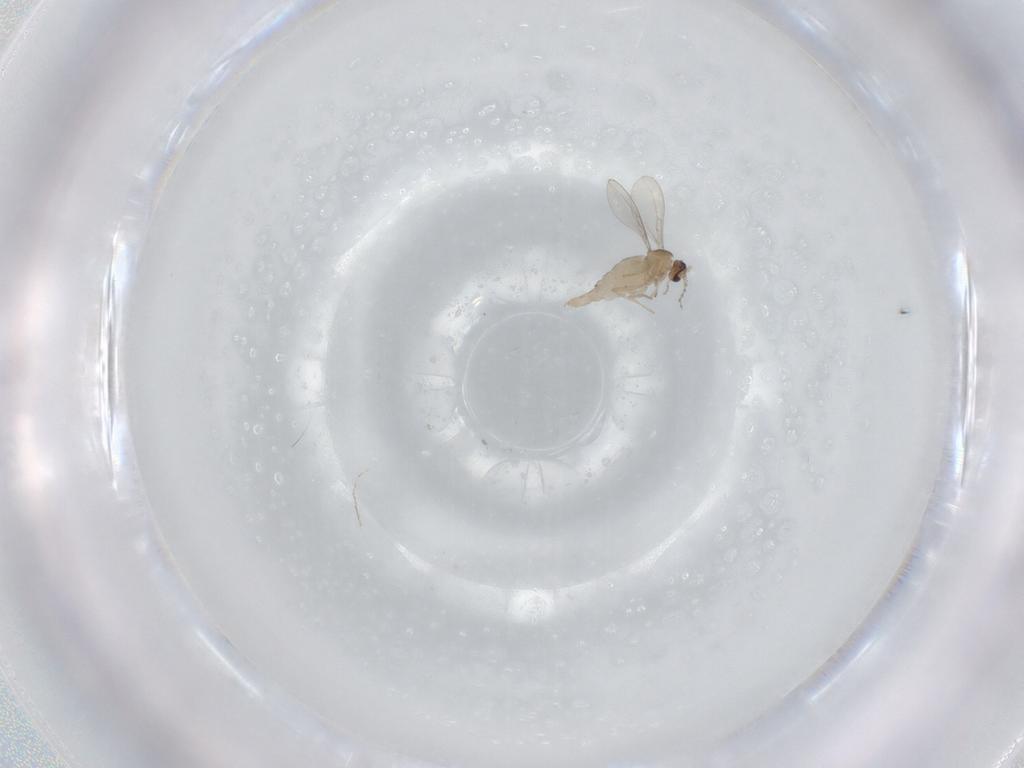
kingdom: Animalia
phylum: Arthropoda
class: Insecta
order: Diptera
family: Cecidomyiidae
